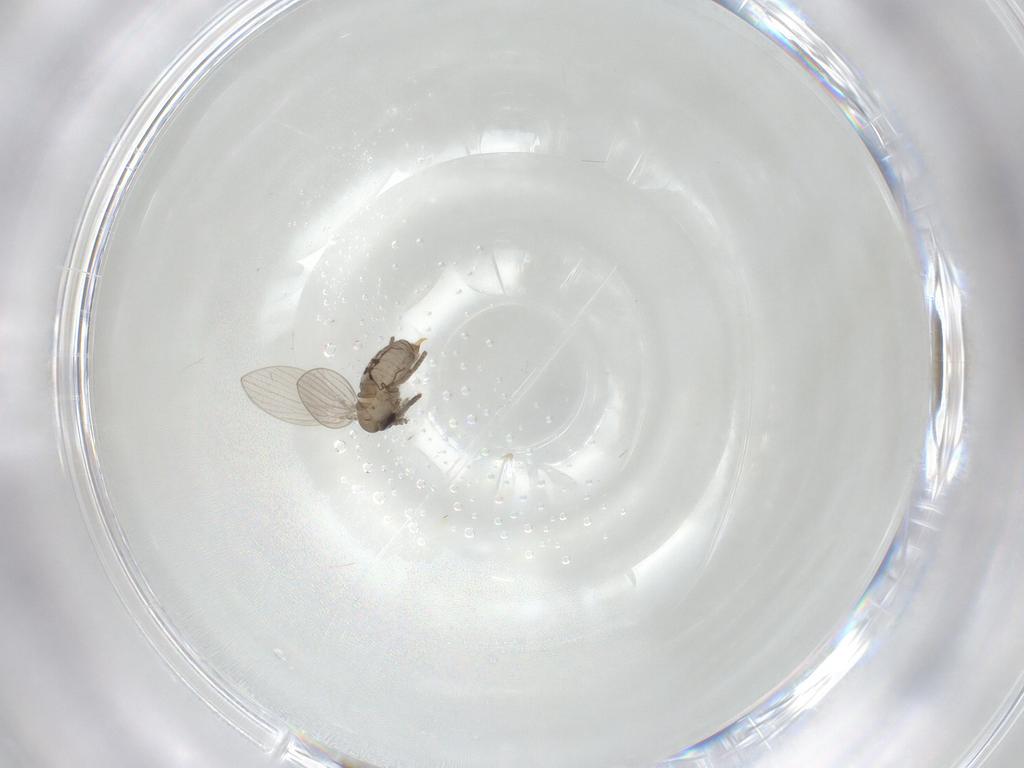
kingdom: Animalia
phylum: Arthropoda
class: Insecta
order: Diptera
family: Psychodidae
